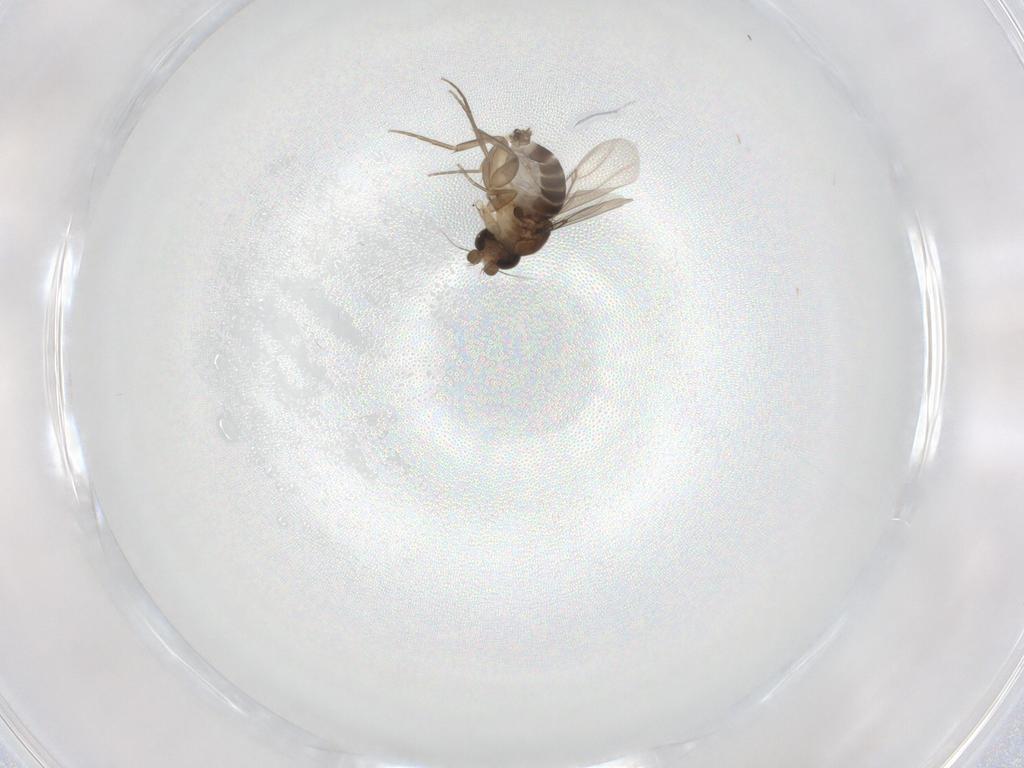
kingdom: Animalia
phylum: Arthropoda
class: Insecta
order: Diptera
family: Phoridae
